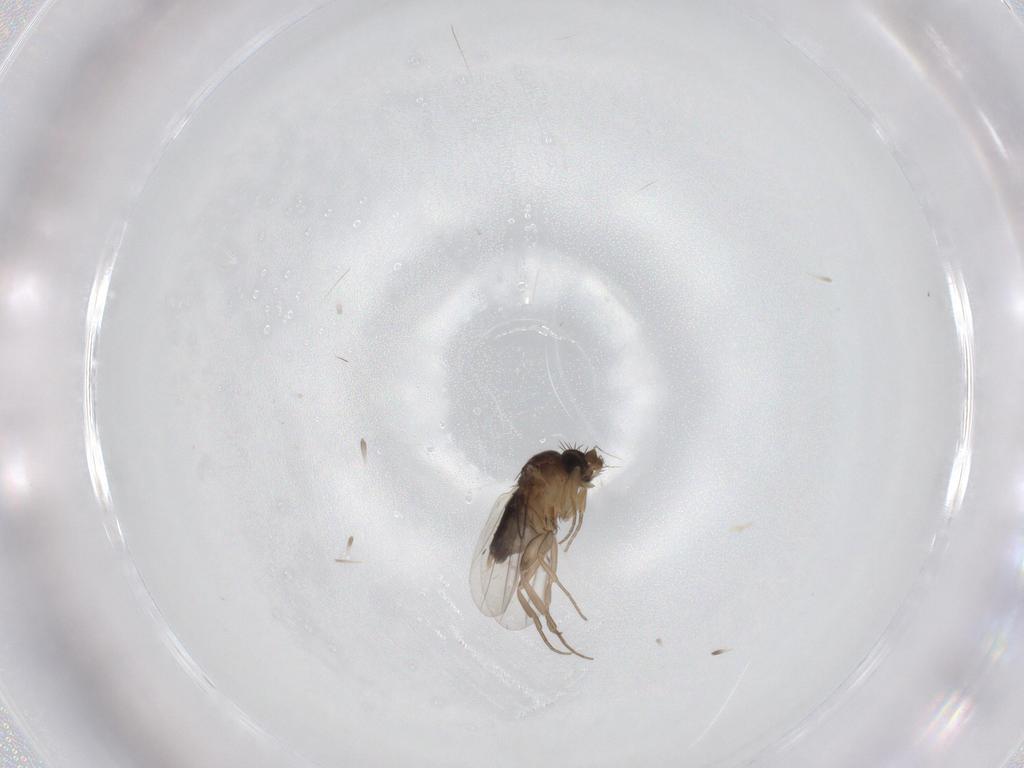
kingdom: Animalia
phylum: Arthropoda
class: Insecta
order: Diptera
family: Phoridae
